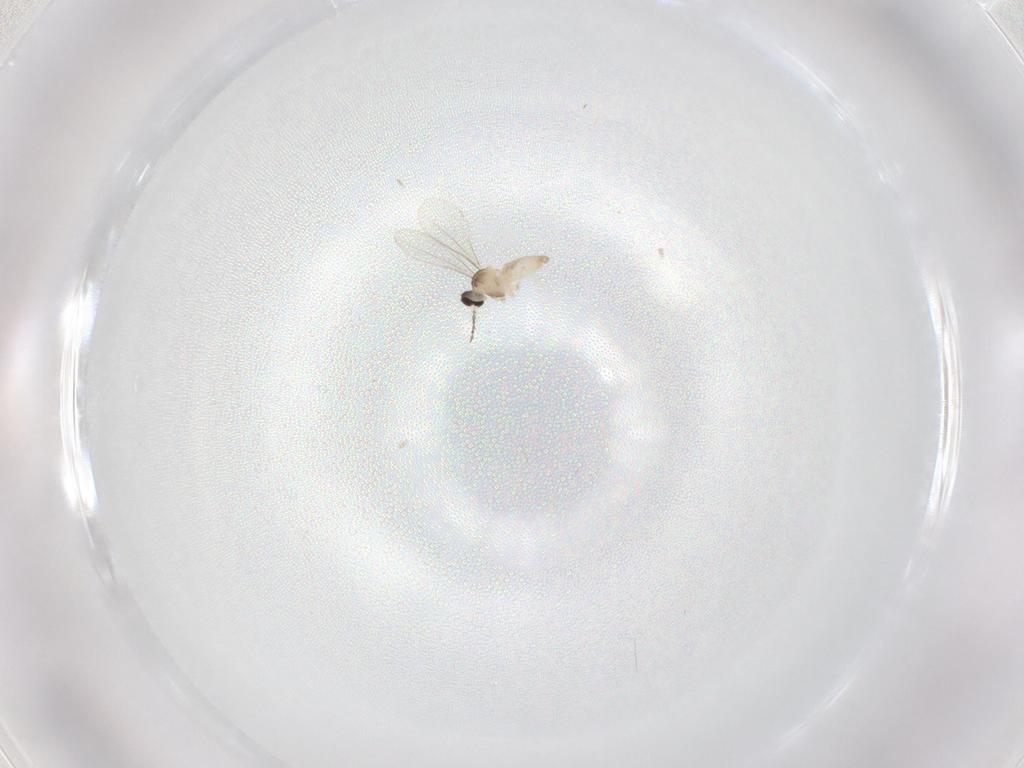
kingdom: Animalia
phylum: Arthropoda
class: Insecta
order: Diptera
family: Cecidomyiidae
